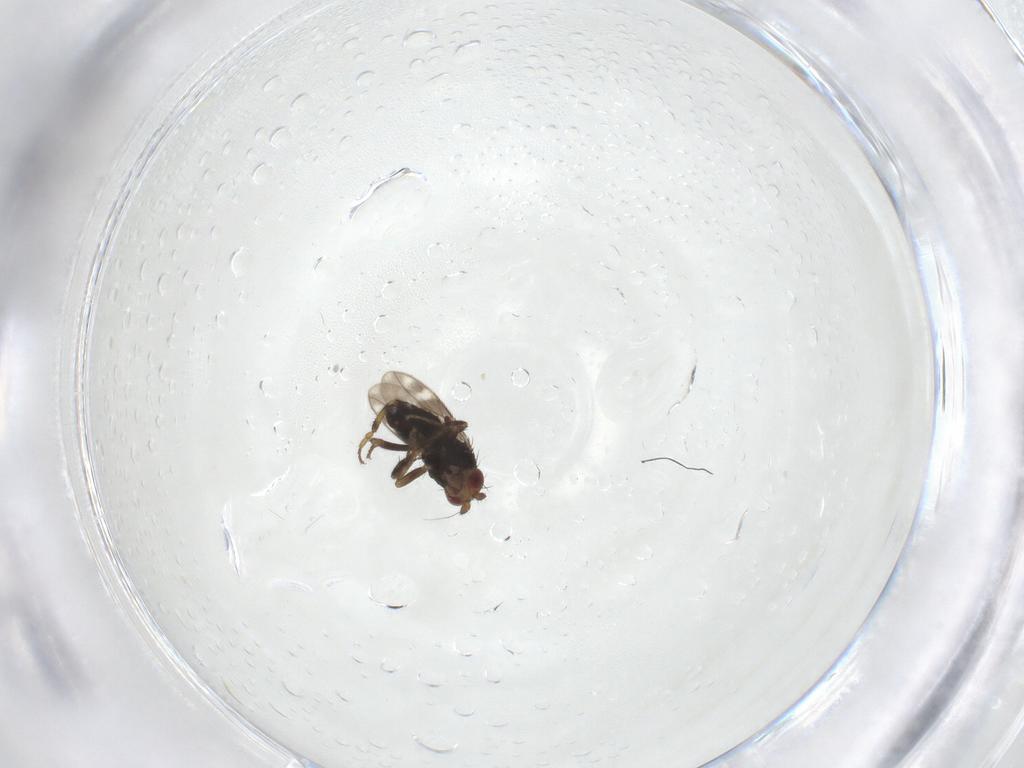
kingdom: Animalia
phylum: Arthropoda
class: Insecta
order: Diptera
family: Sphaeroceridae
